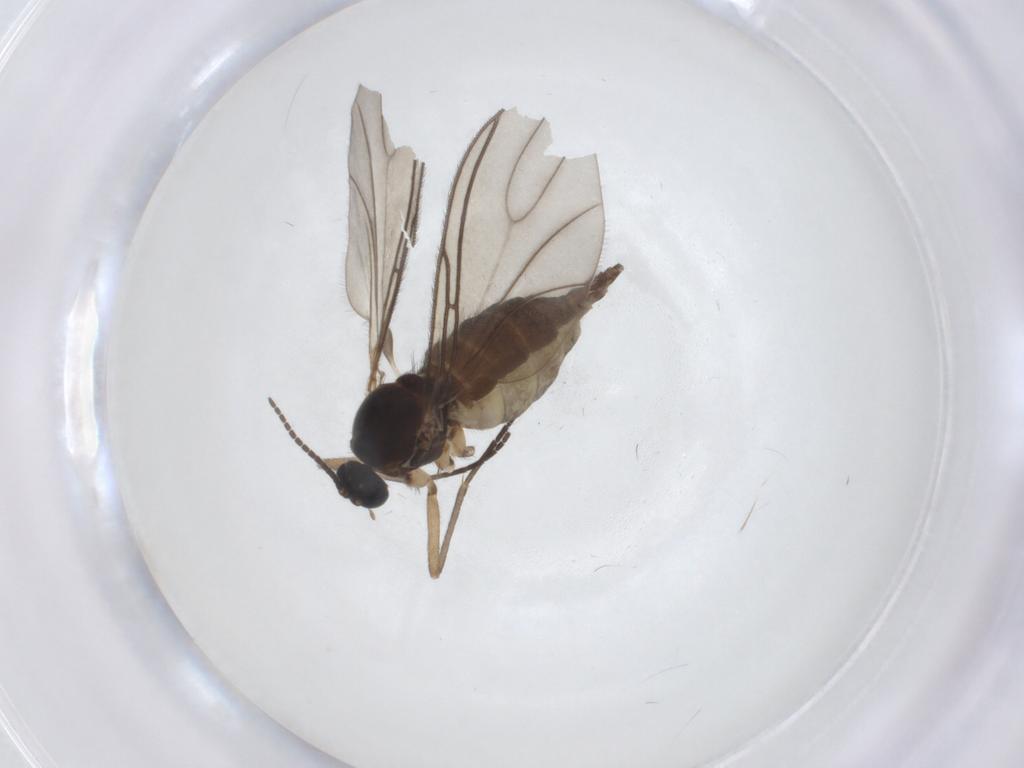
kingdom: Animalia
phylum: Arthropoda
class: Insecta
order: Diptera
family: Sciaridae
